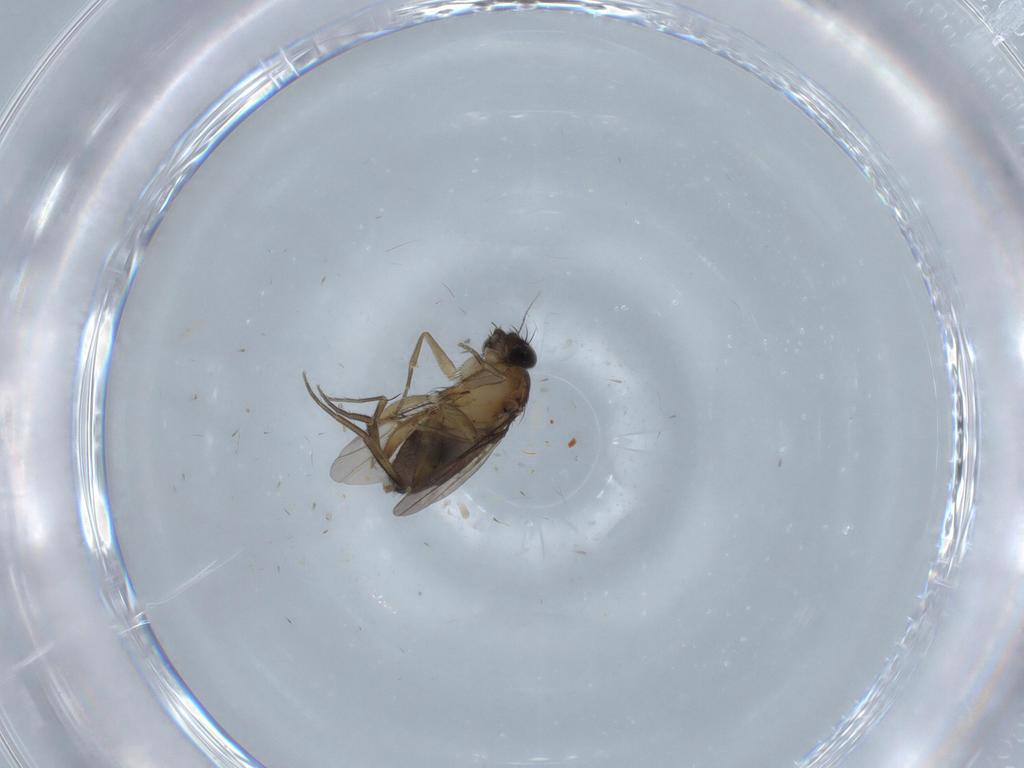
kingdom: Animalia
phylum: Arthropoda
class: Insecta
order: Diptera
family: Cecidomyiidae
